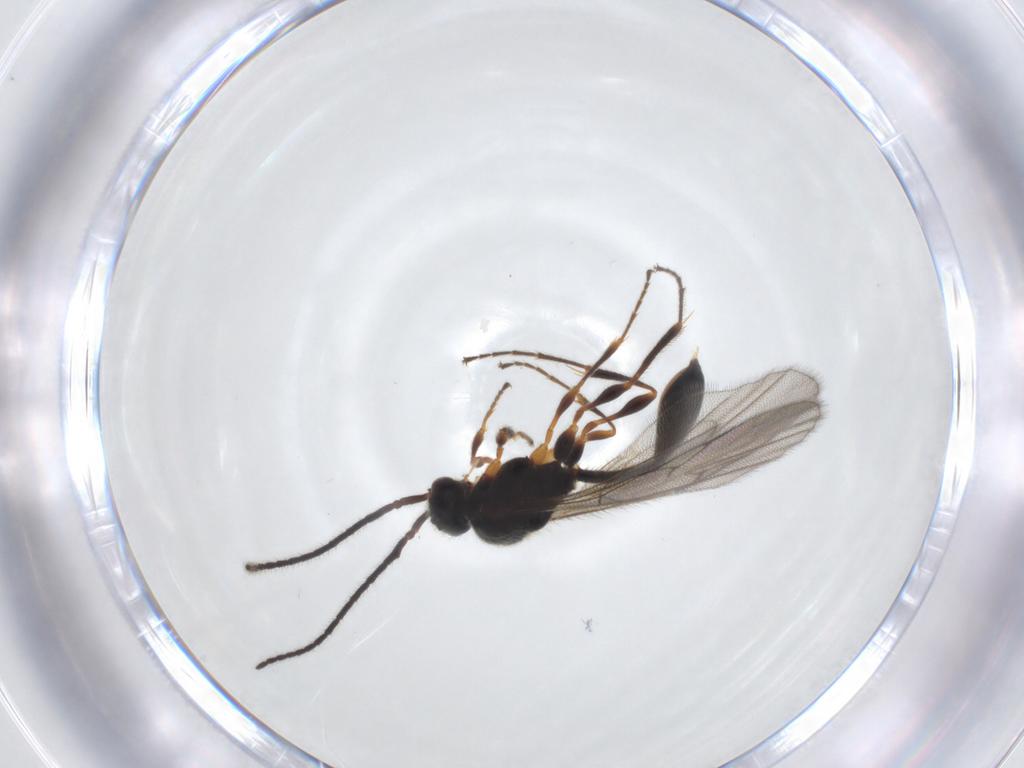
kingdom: Animalia
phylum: Arthropoda
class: Insecta
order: Hymenoptera
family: Diapriidae
